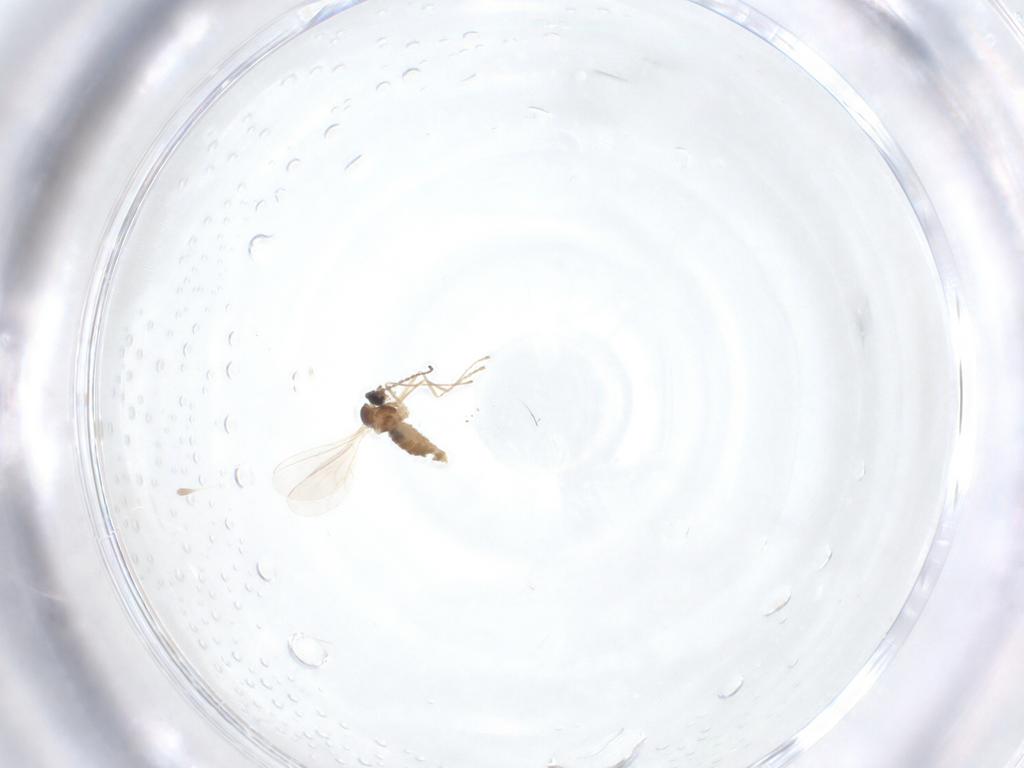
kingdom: Animalia
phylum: Arthropoda
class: Insecta
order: Diptera
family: Cecidomyiidae
